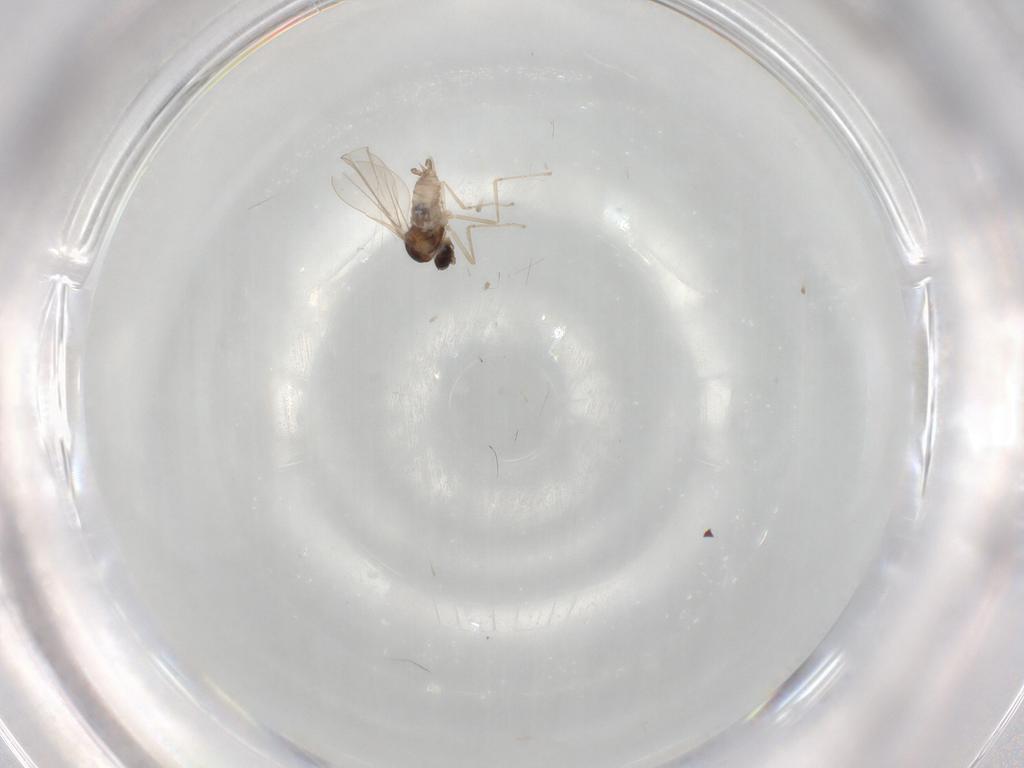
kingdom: Animalia
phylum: Arthropoda
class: Insecta
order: Diptera
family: Cecidomyiidae
